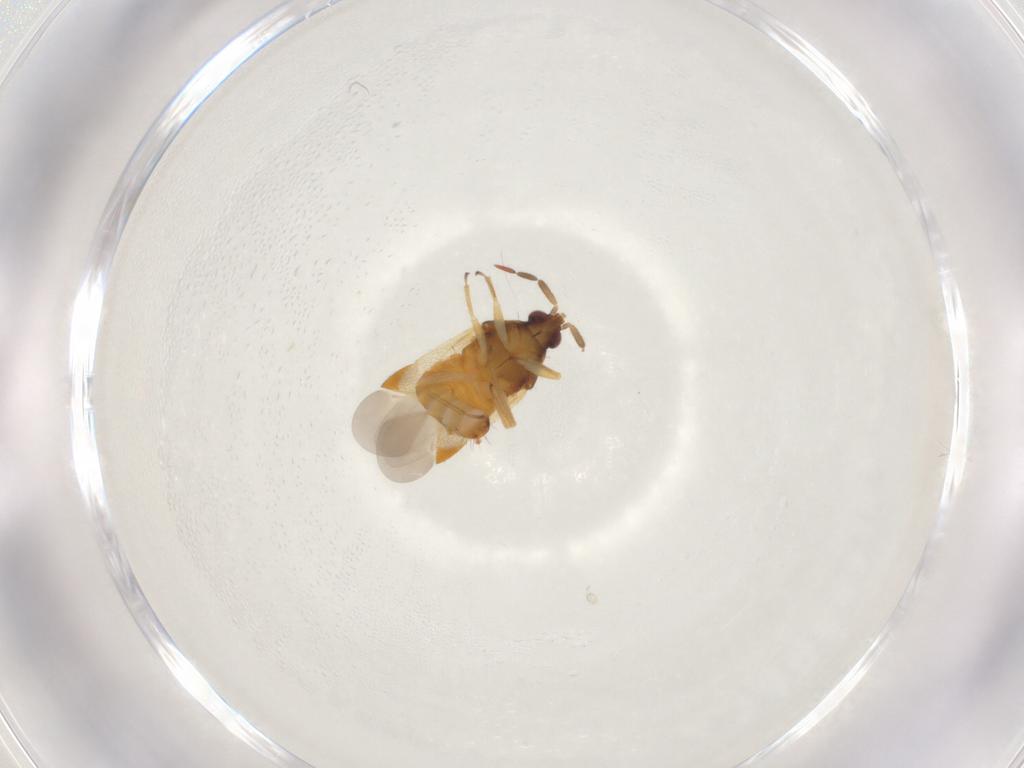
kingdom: Animalia
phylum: Arthropoda
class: Insecta
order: Hemiptera
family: Anthocoridae
